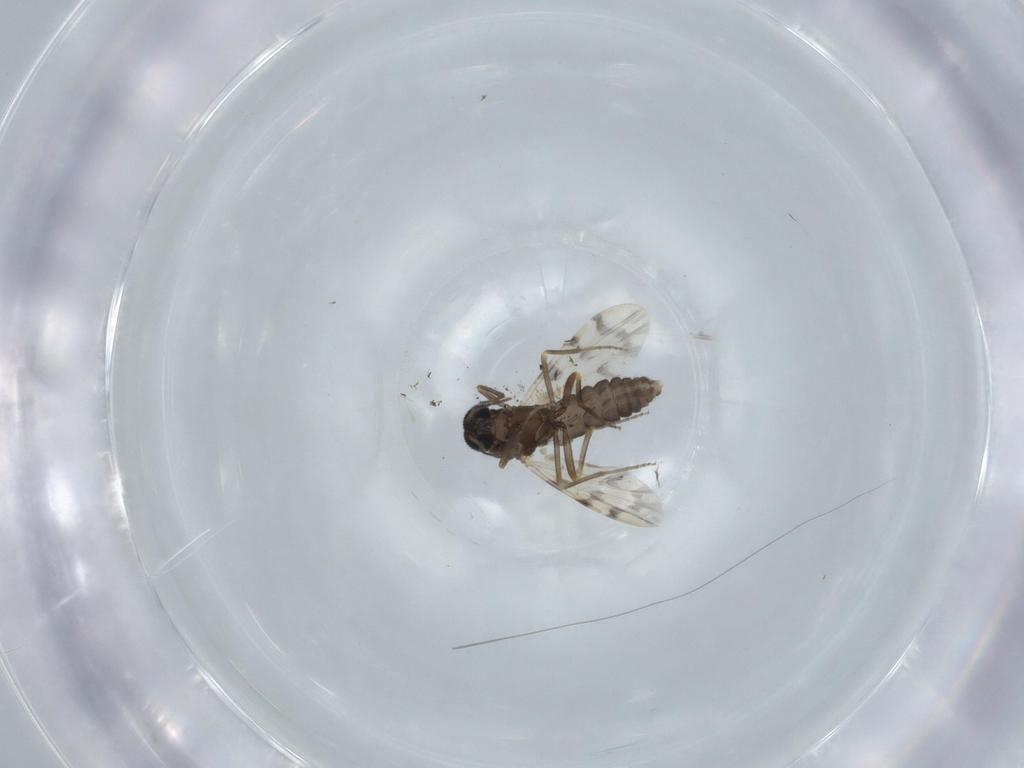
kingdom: Animalia
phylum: Arthropoda
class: Insecta
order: Diptera
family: Ceratopogonidae
